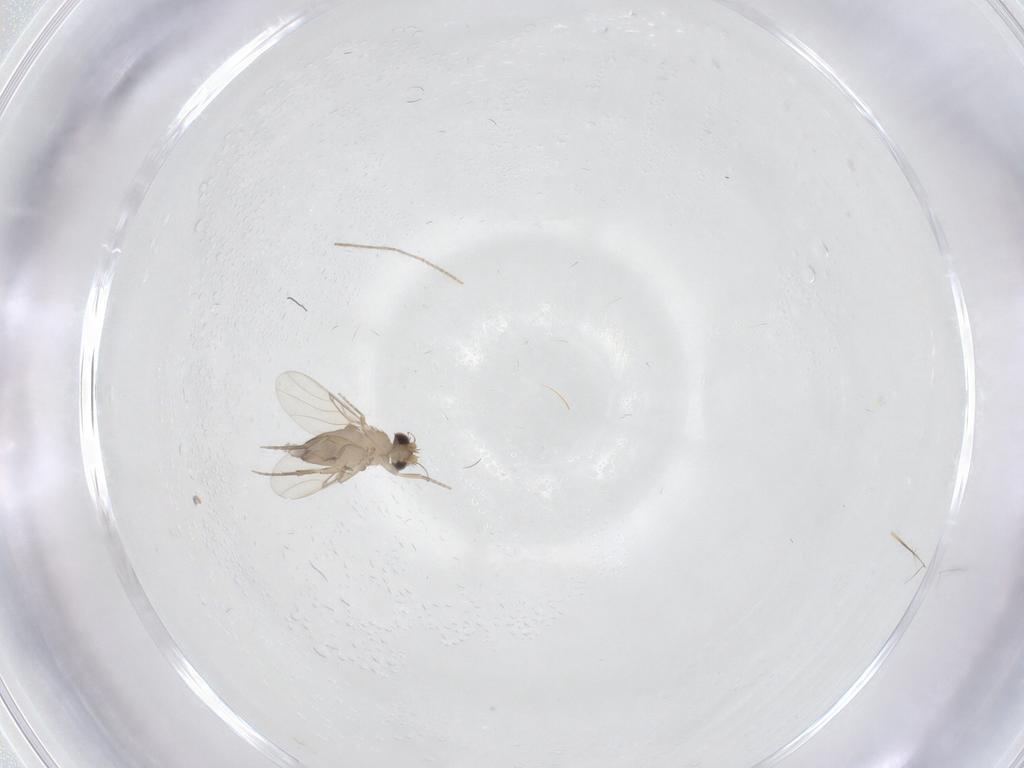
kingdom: Animalia
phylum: Arthropoda
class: Insecta
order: Diptera
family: Phoridae
